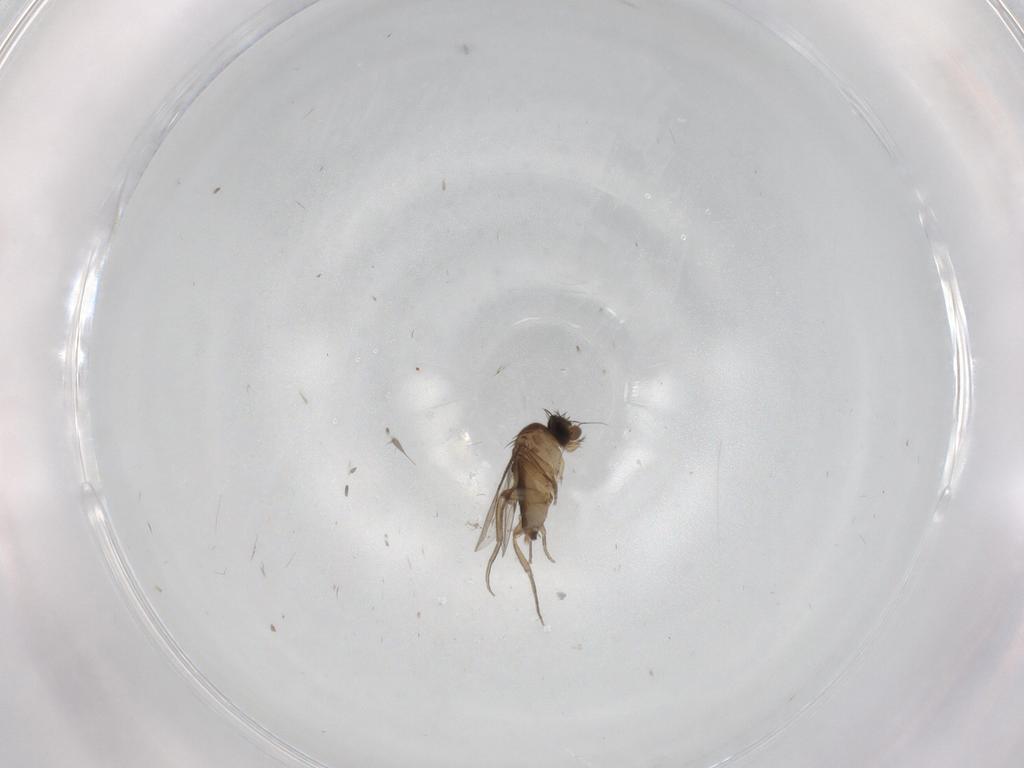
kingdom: Animalia
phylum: Arthropoda
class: Insecta
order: Diptera
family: Phoridae
